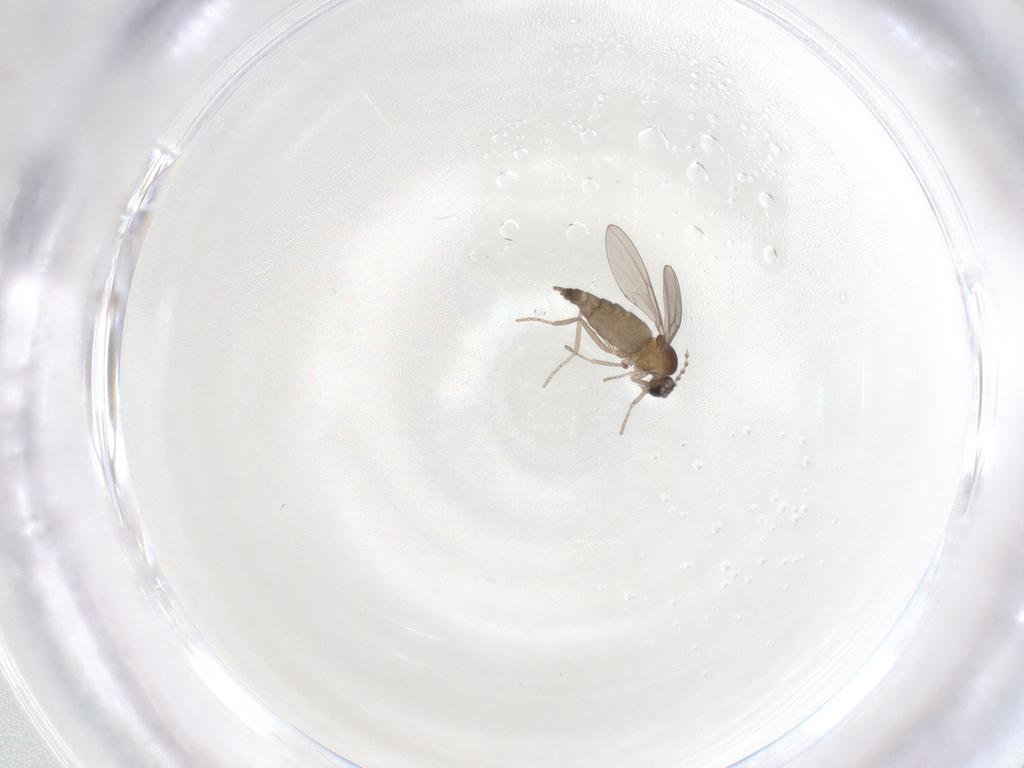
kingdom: Animalia
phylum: Arthropoda
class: Insecta
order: Diptera
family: Cecidomyiidae
